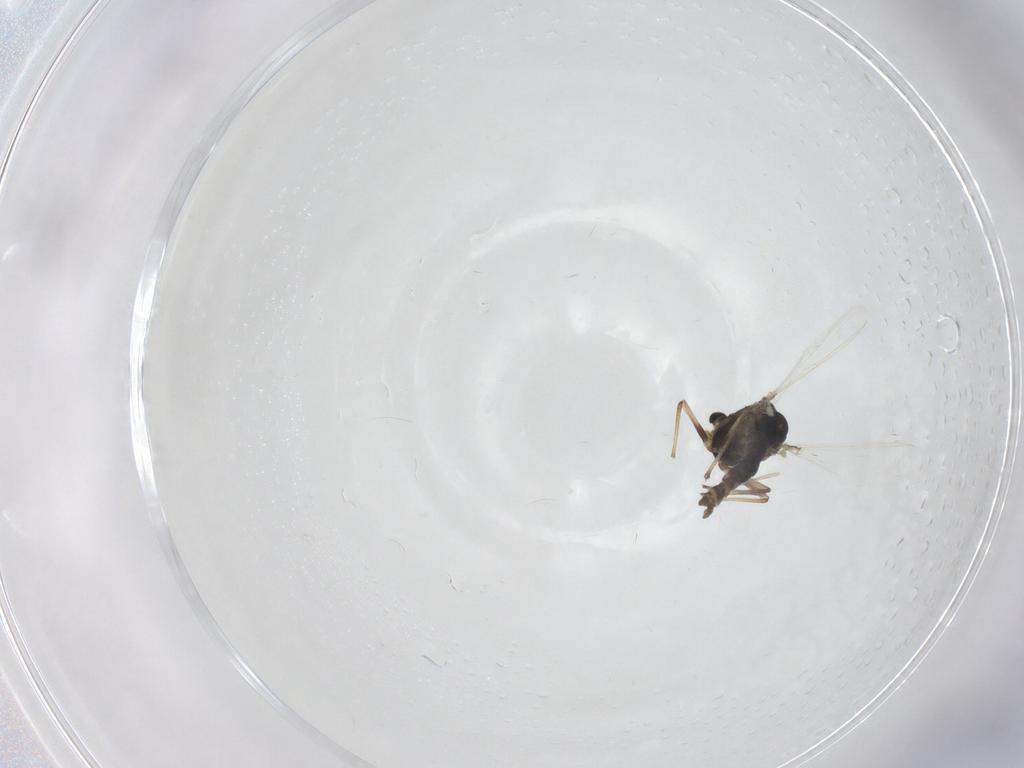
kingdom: Animalia
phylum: Arthropoda
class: Insecta
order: Diptera
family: Chironomidae
